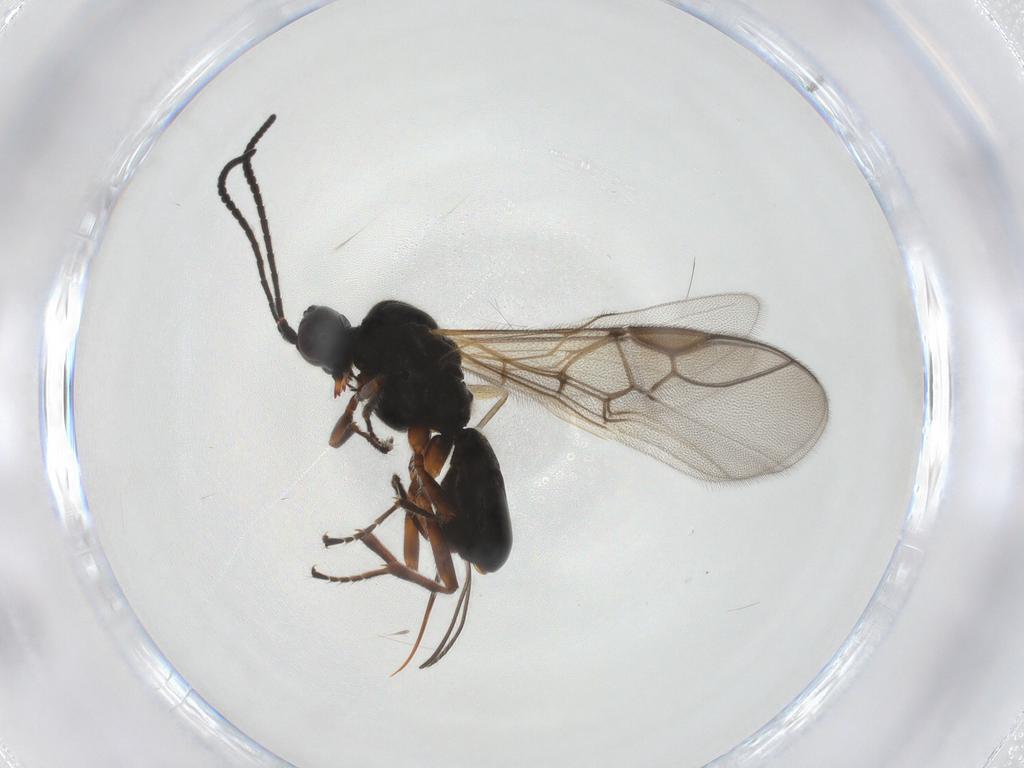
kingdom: Animalia
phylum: Arthropoda
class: Insecta
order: Hymenoptera
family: Braconidae
